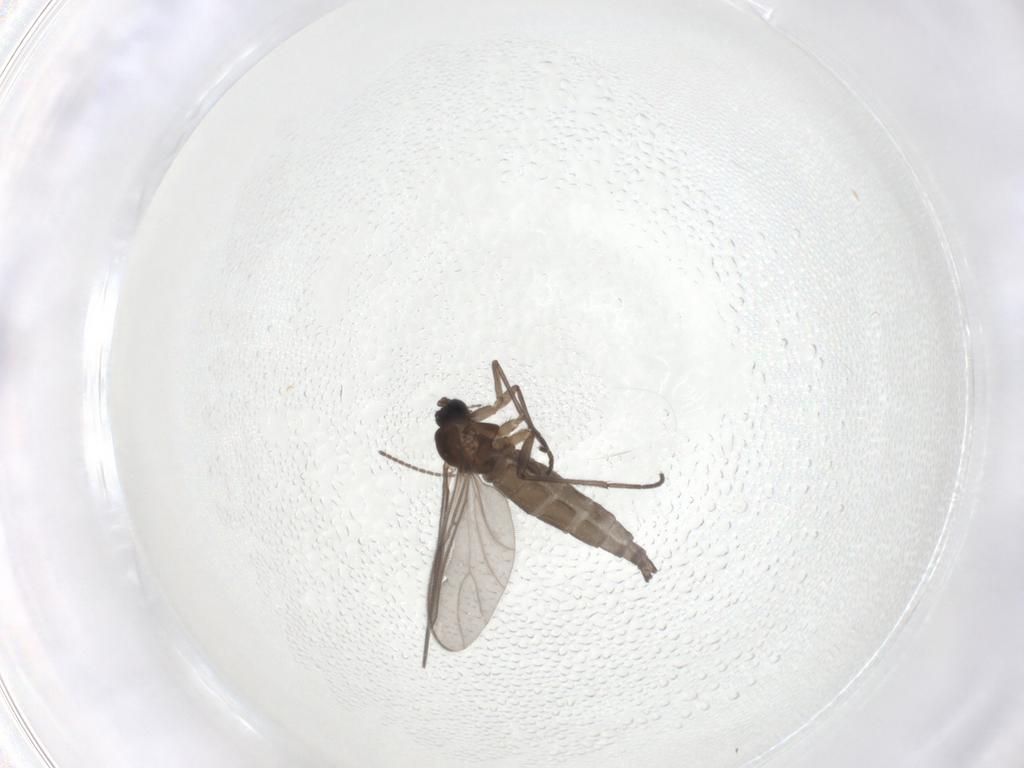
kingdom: Animalia
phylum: Arthropoda
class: Insecta
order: Diptera
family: Sciaridae
